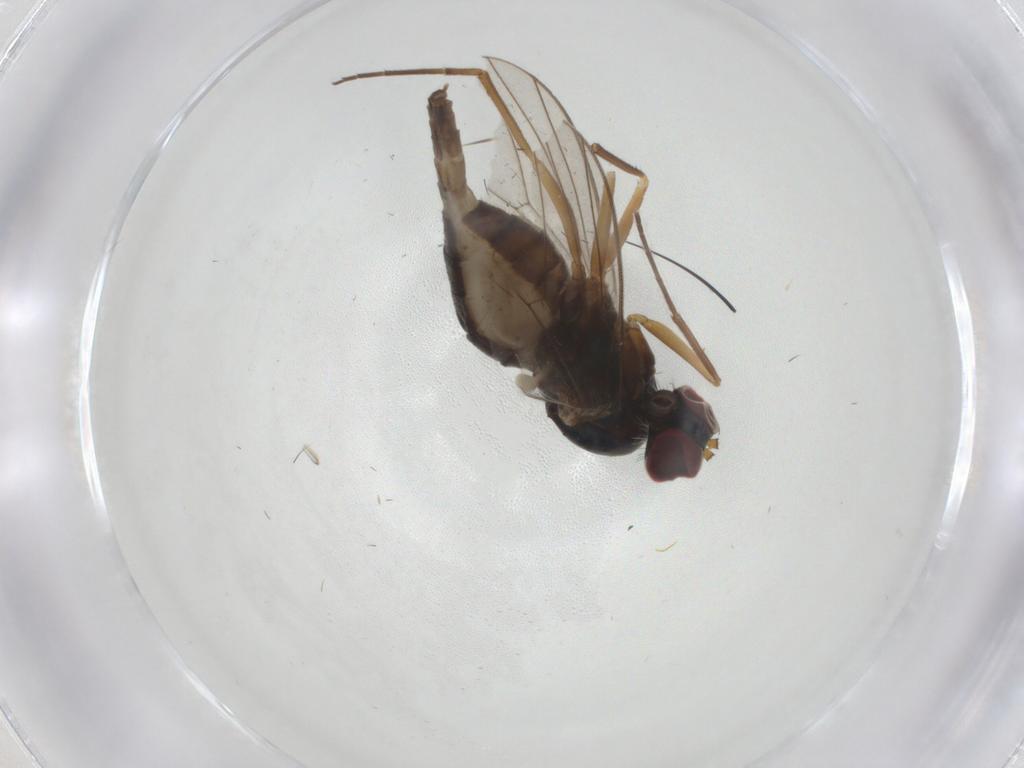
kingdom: Animalia
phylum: Arthropoda
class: Insecta
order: Diptera
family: Dolichopodidae
